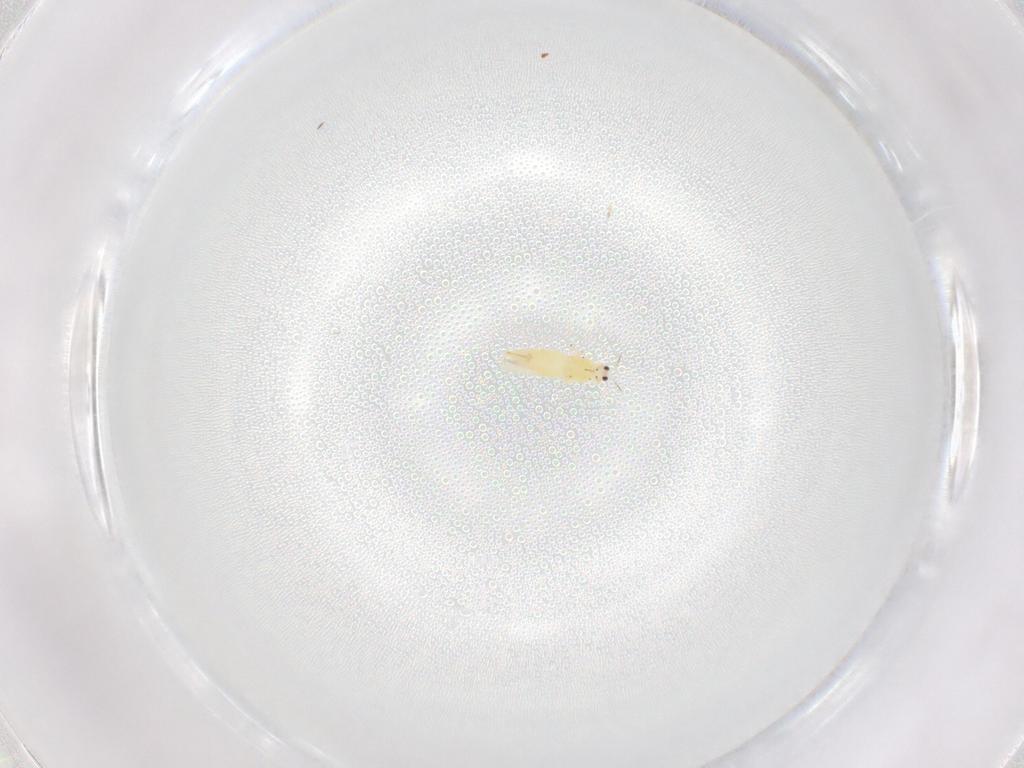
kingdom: Animalia
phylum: Arthropoda
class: Insecta
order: Thysanoptera
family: Thripidae
